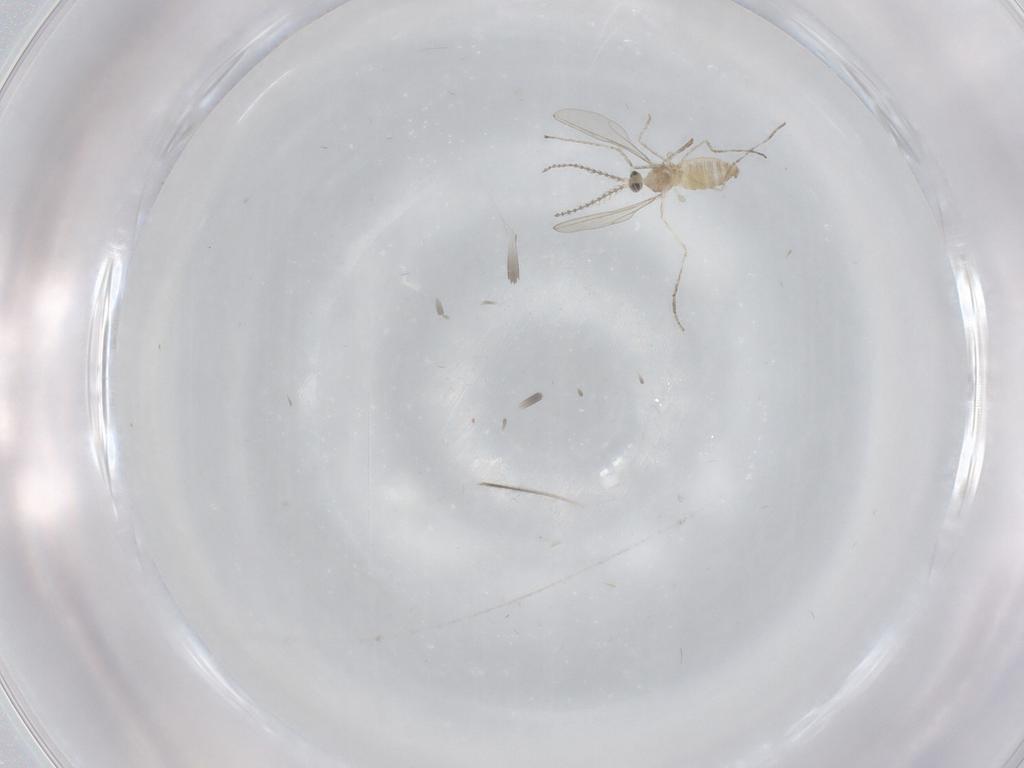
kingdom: Animalia
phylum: Arthropoda
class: Insecta
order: Diptera
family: Cecidomyiidae
